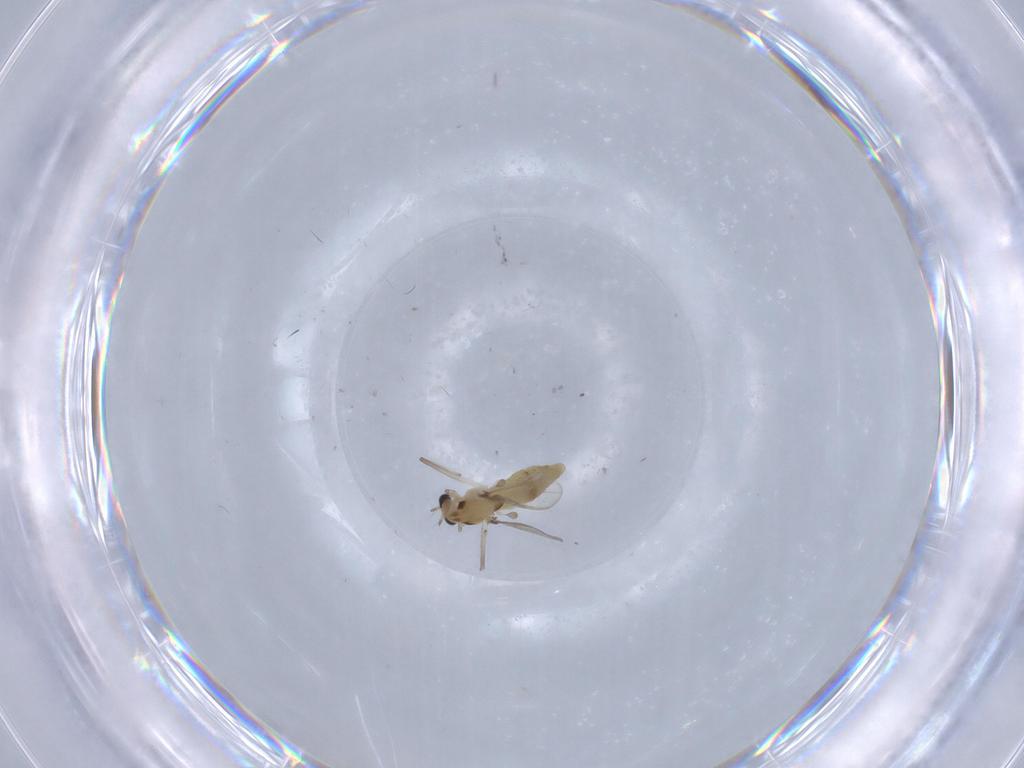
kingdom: Animalia
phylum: Arthropoda
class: Insecta
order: Diptera
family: Chironomidae
